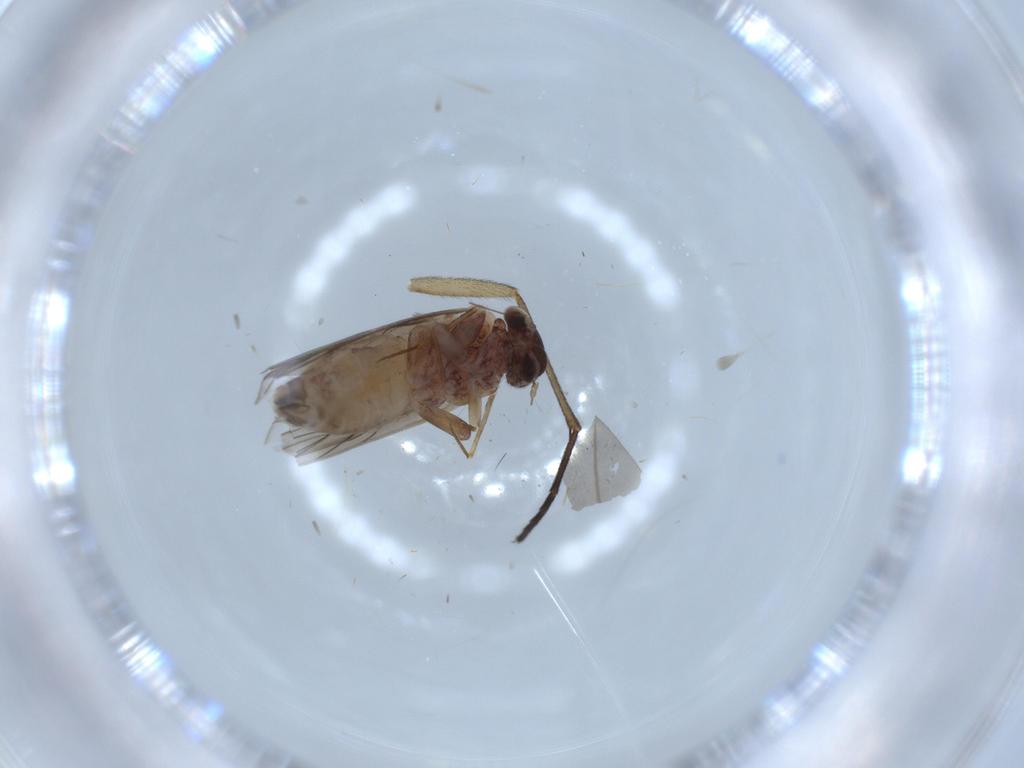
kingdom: Animalia
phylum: Arthropoda
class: Insecta
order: Psocodea
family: Lepidopsocidae
